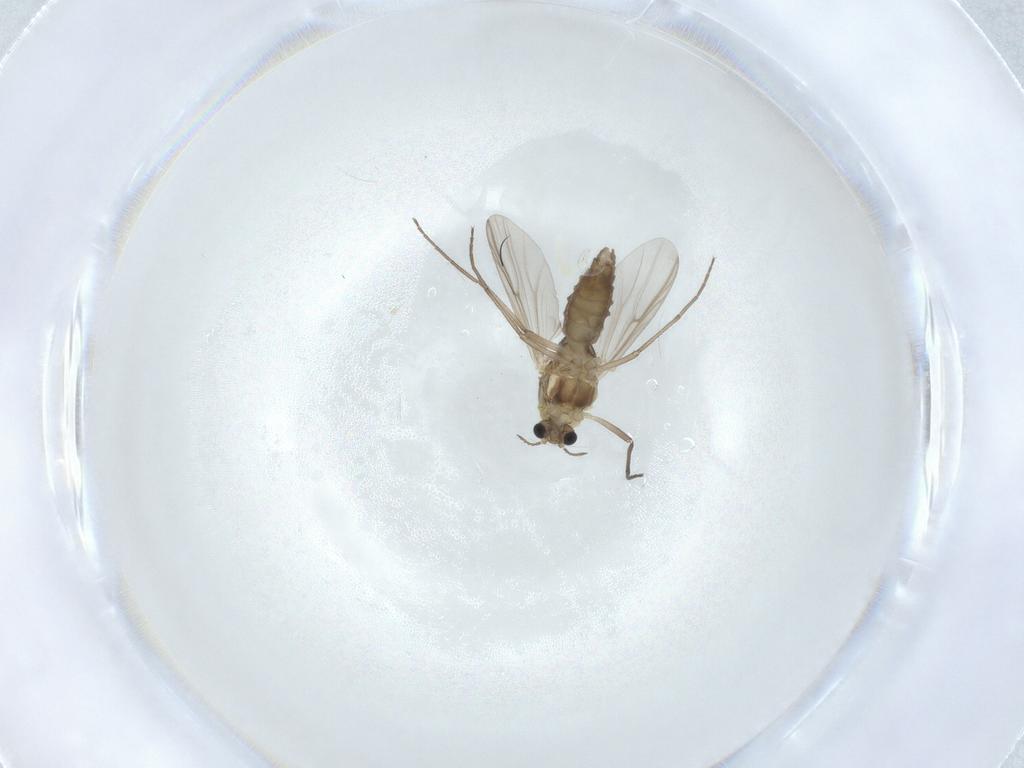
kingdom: Animalia
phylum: Arthropoda
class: Insecta
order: Diptera
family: Chironomidae
